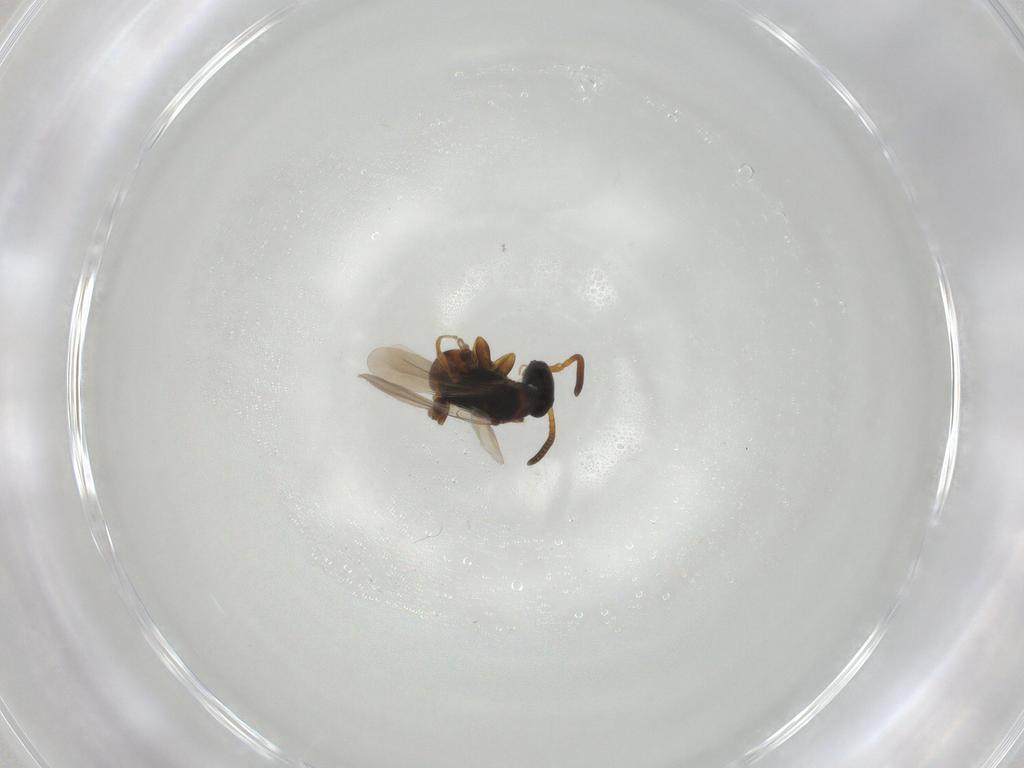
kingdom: Animalia
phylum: Arthropoda
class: Insecta
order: Hymenoptera
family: Bethylidae
